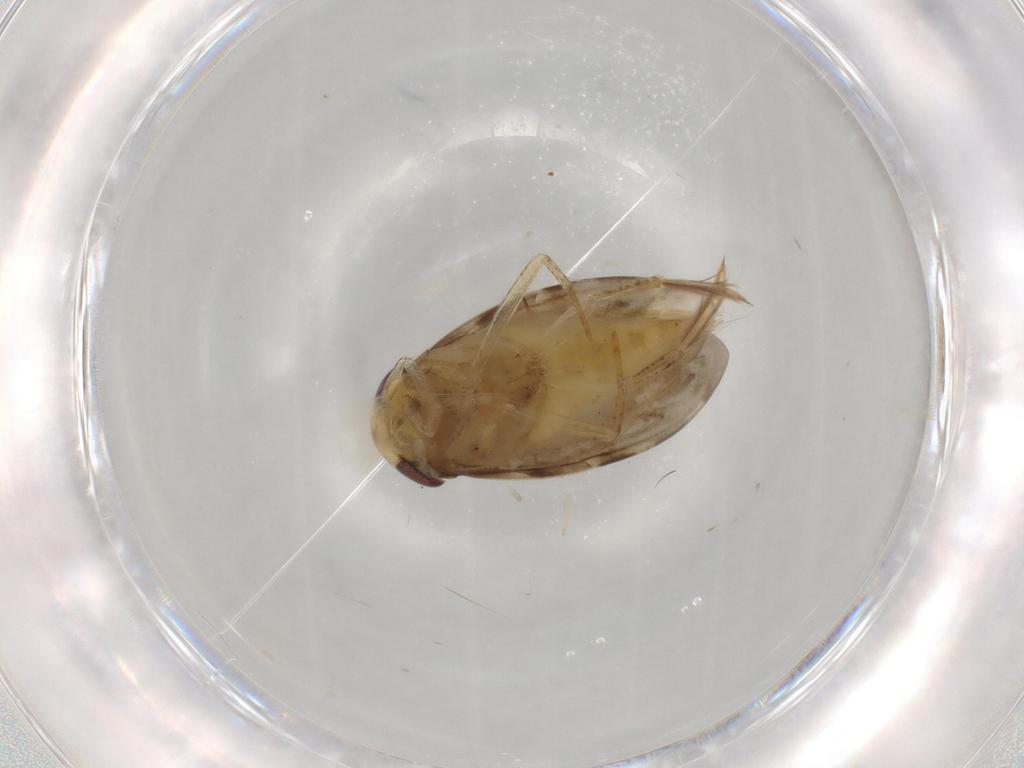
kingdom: Animalia
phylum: Arthropoda
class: Insecta
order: Hemiptera
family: Corixidae
